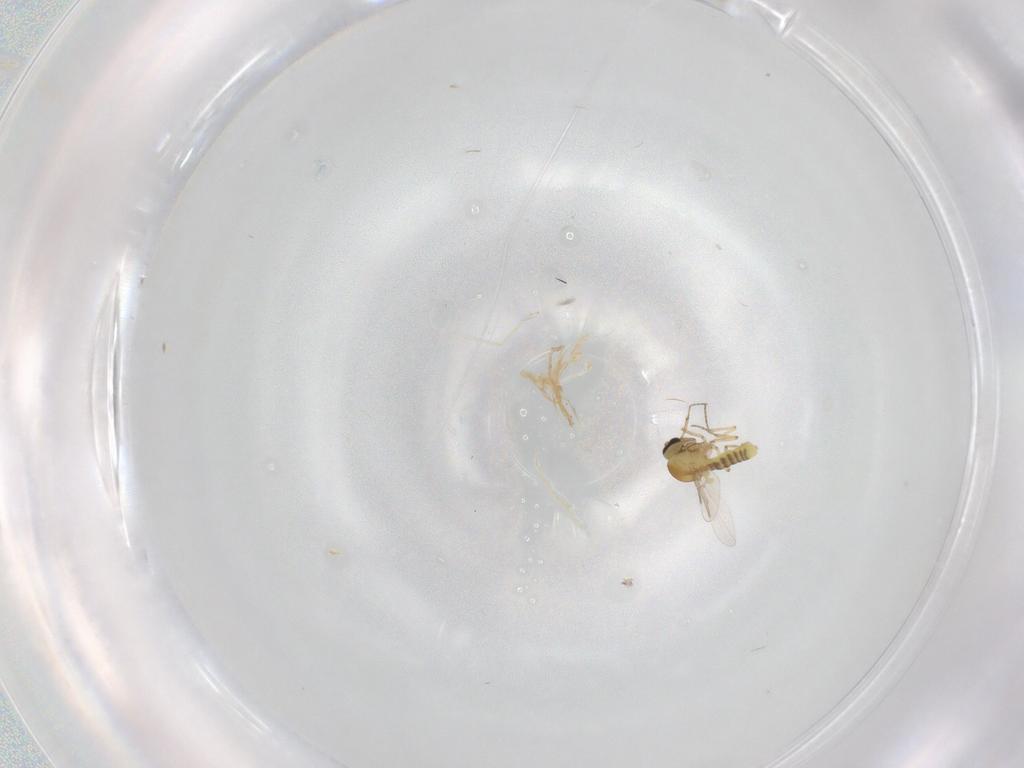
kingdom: Animalia
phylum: Arthropoda
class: Insecta
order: Diptera
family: Ceratopogonidae
